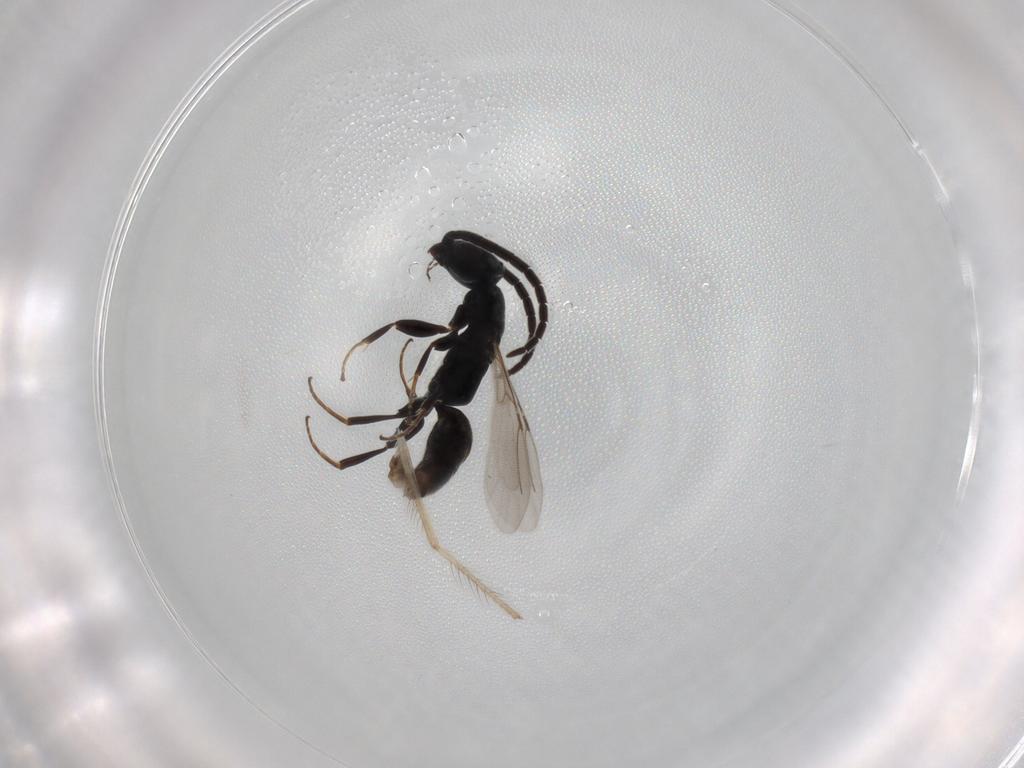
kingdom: Animalia
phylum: Arthropoda
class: Insecta
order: Hymenoptera
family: Bethylidae
